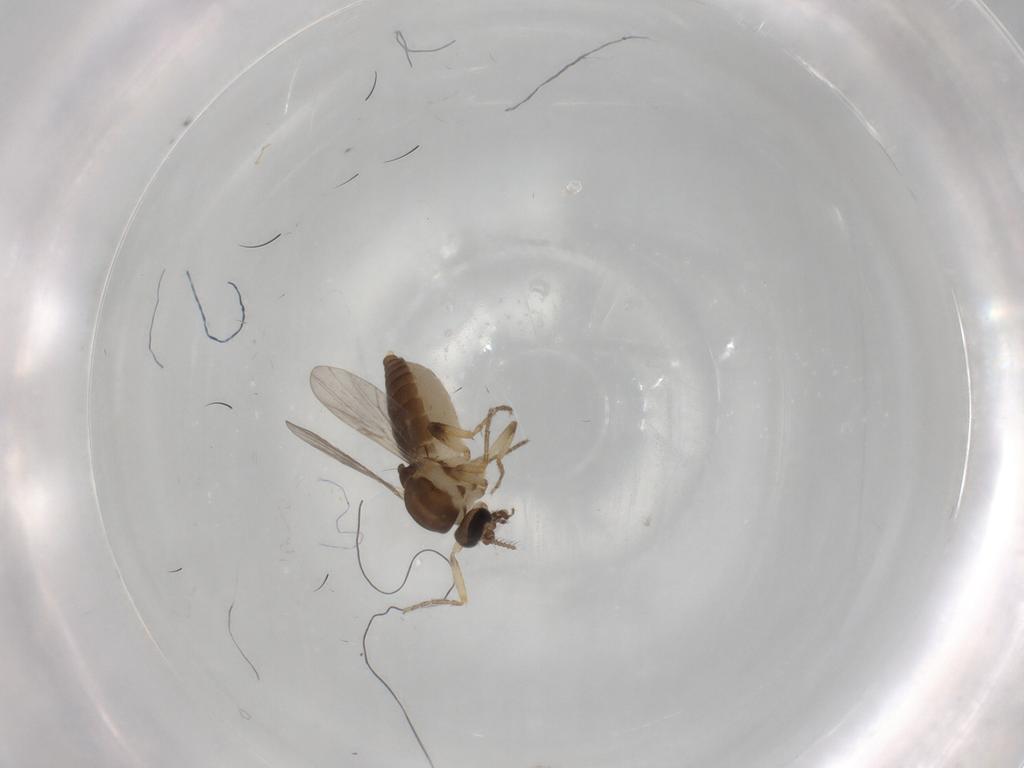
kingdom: Animalia
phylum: Arthropoda
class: Insecta
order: Diptera
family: Ceratopogonidae
